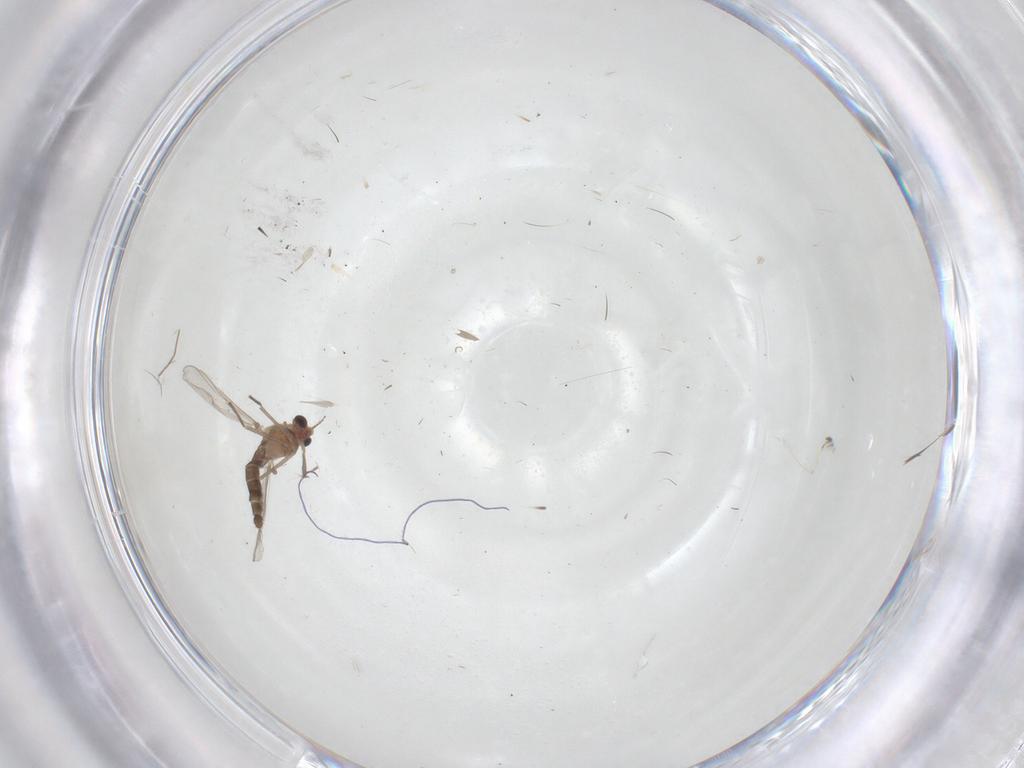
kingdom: Animalia
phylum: Arthropoda
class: Insecta
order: Diptera
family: Chironomidae
